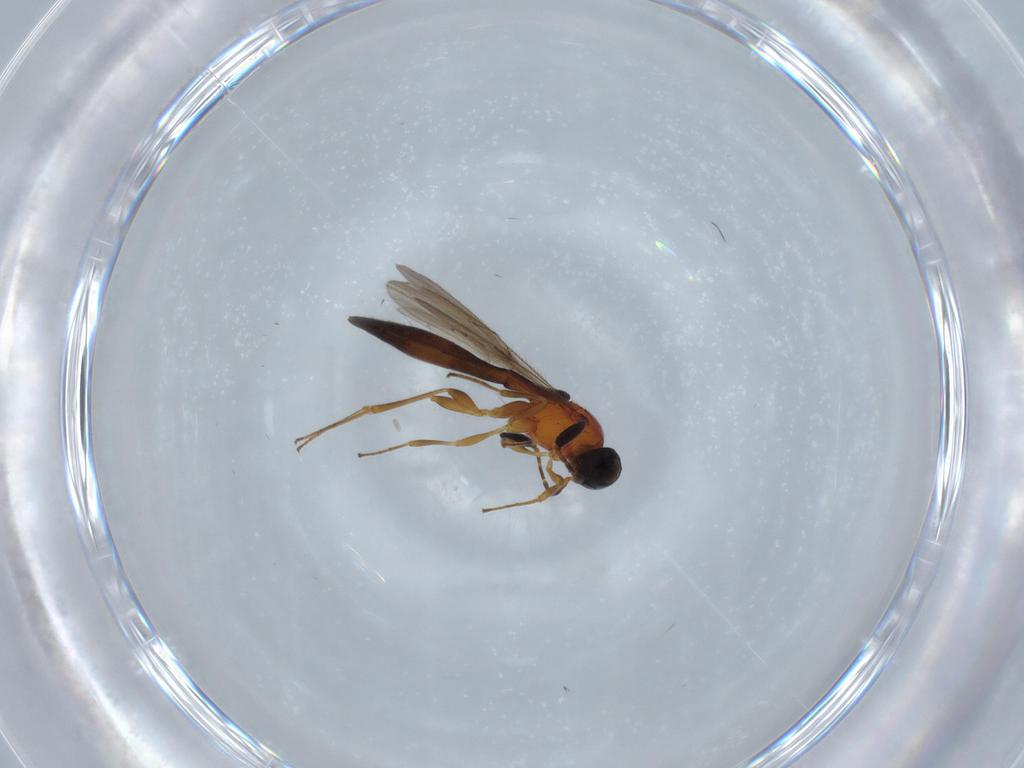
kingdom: Animalia
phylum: Arthropoda
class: Insecta
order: Hymenoptera
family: Scelionidae
